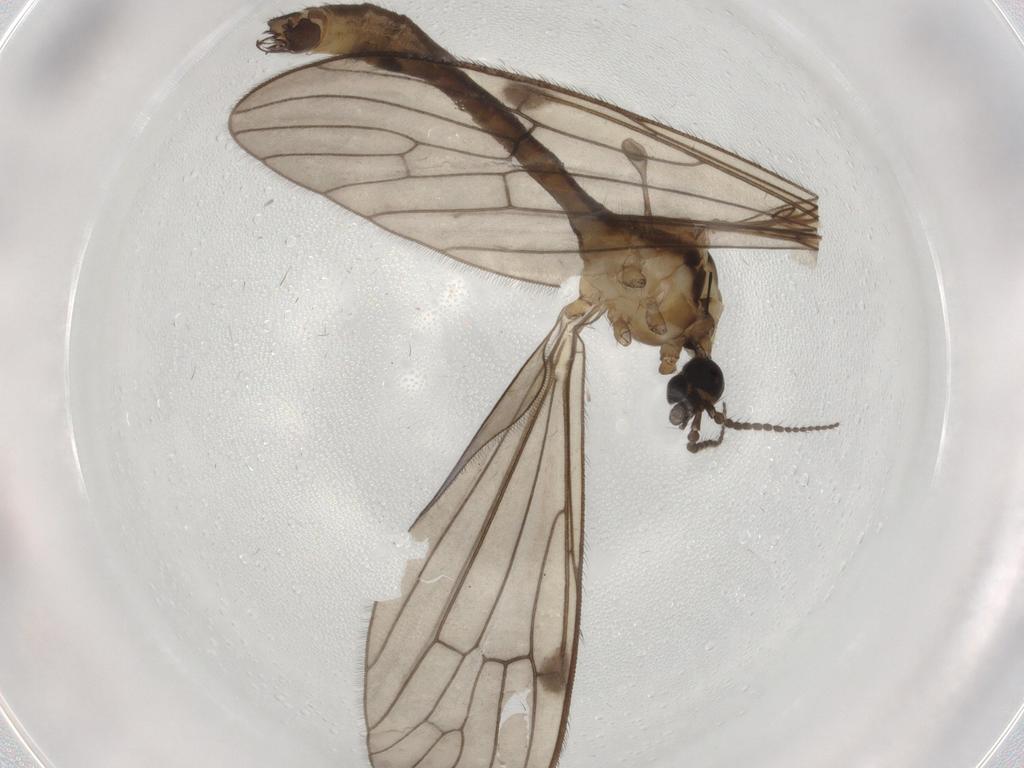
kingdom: Animalia
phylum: Arthropoda
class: Insecta
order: Diptera
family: Limoniidae
